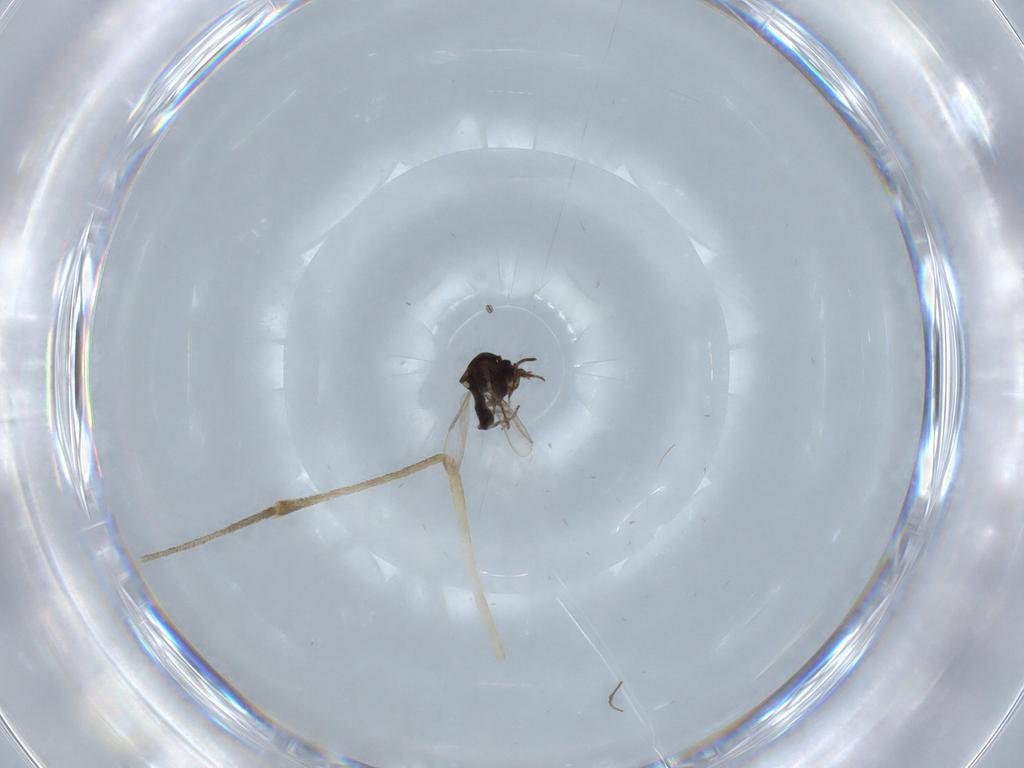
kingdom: Animalia
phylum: Arthropoda
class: Insecta
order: Diptera
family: Ceratopogonidae
